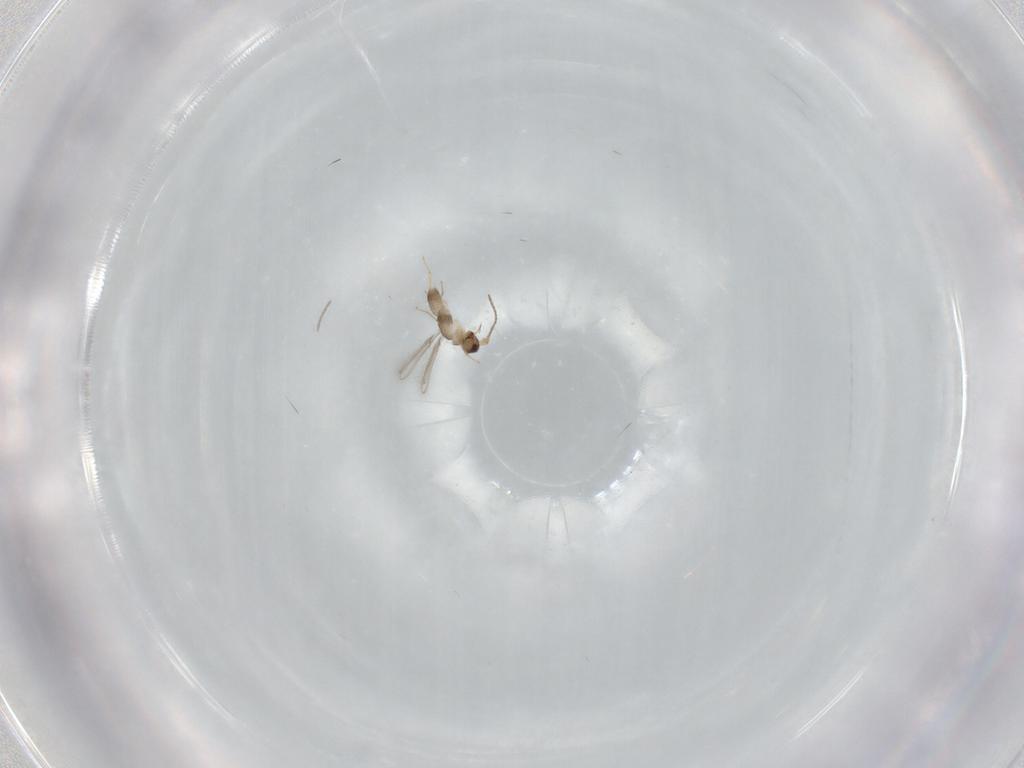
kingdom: Animalia
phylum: Arthropoda
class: Insecta
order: Hymenoptera
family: Mymaridae
